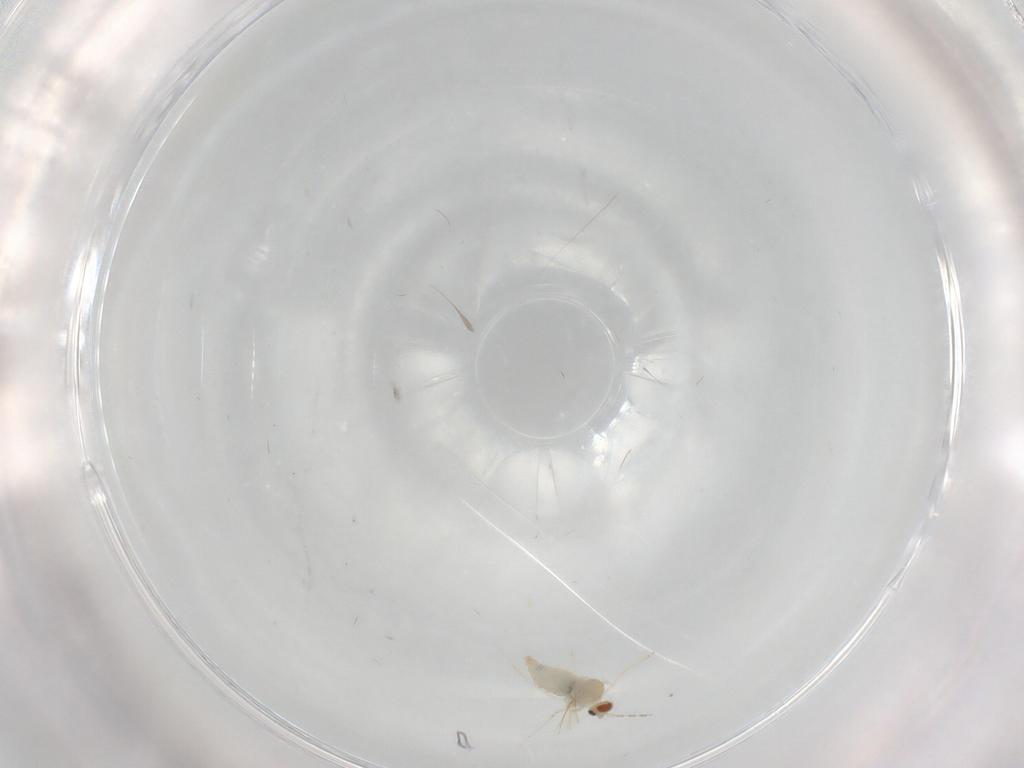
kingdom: Animalia
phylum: Arthropoda
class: Insecta
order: Diptera
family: Cecidomyiidae
